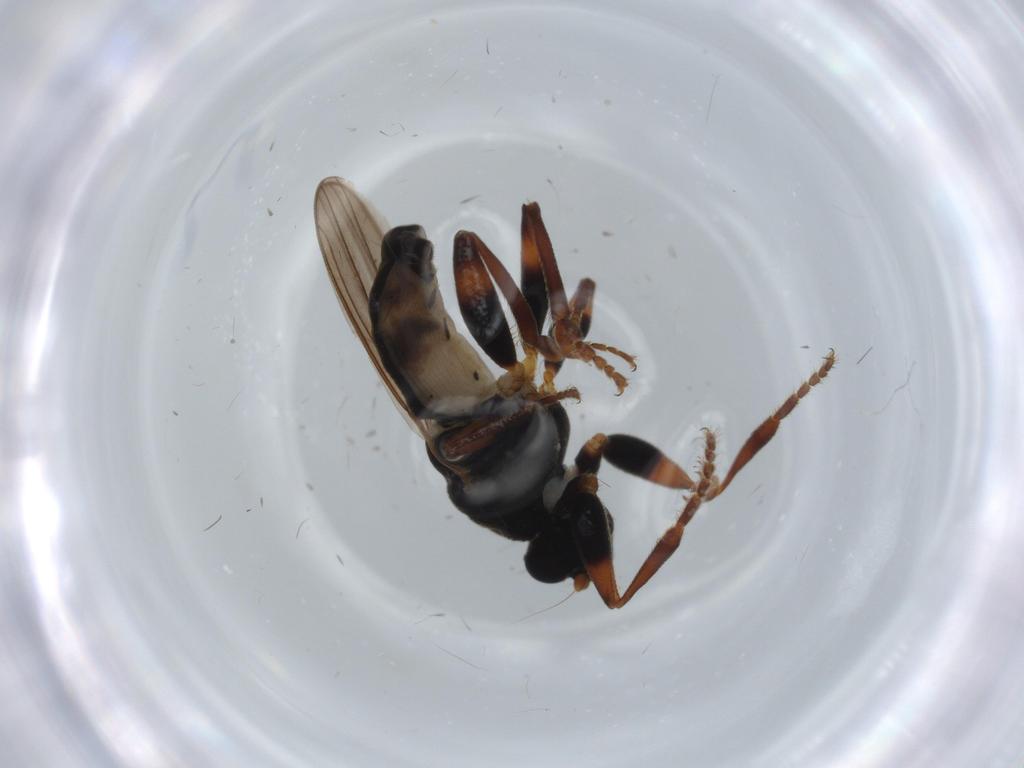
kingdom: Animalia
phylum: Arthropoda
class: Insecta
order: Diptera
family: Sphaeroceridae
